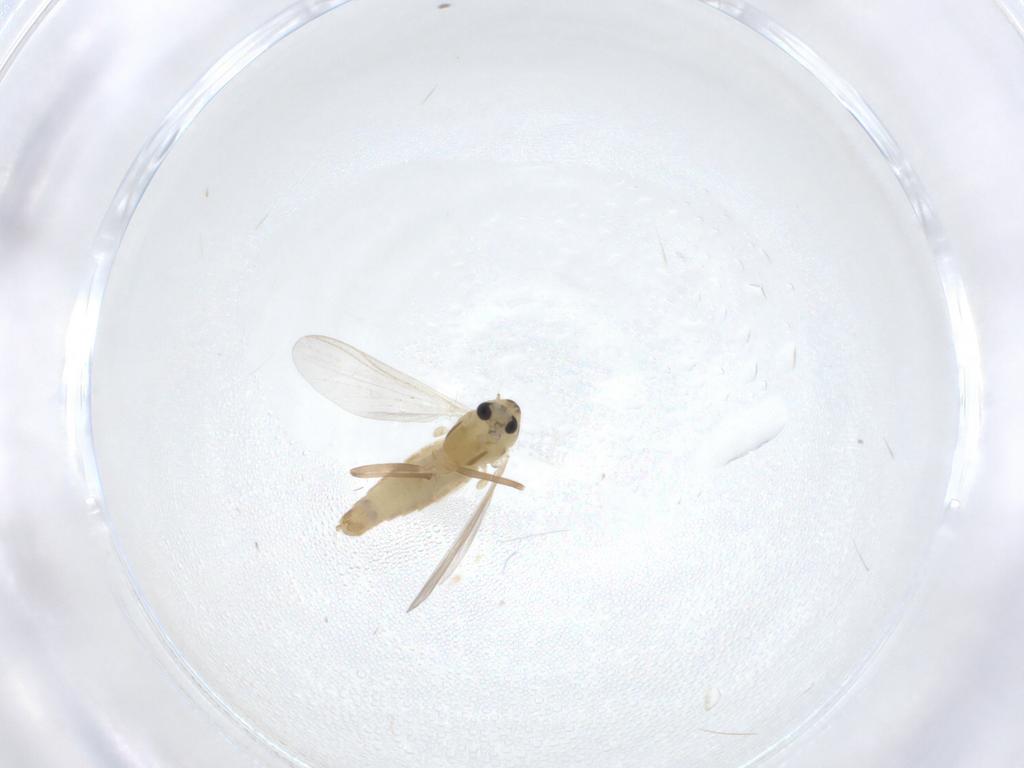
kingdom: Animalia
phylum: Arthropoda
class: Insecta
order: Diptera
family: Chironomidae
